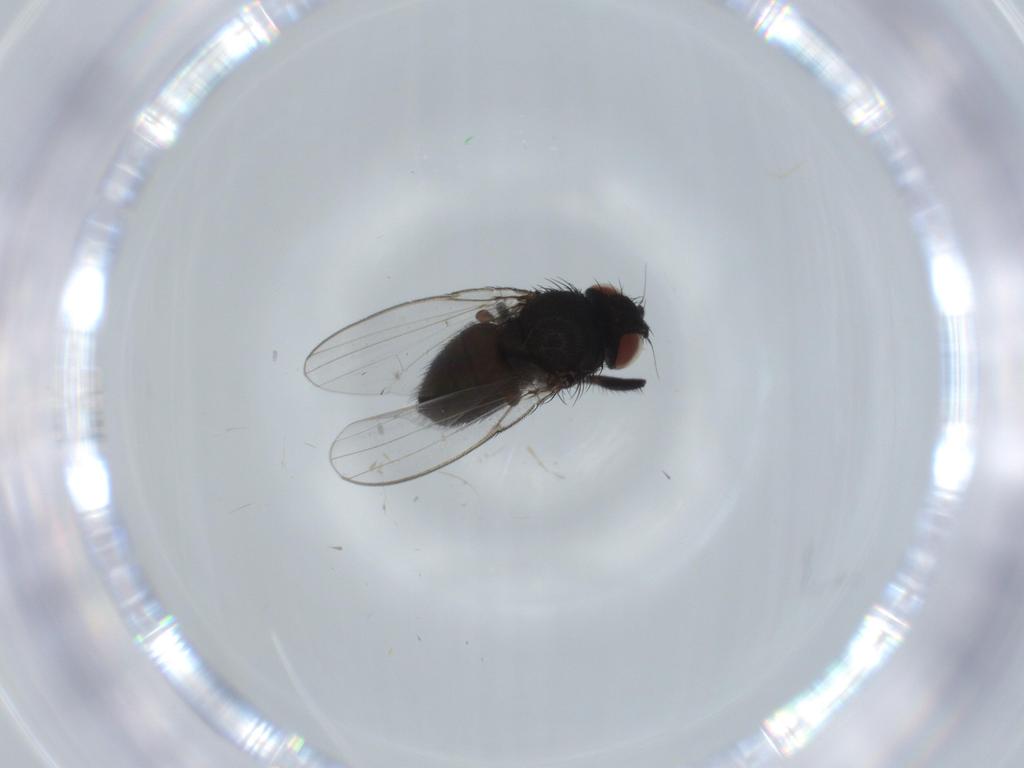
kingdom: Animalia
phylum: Arthropoda
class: Insecta
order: Diptera
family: Milichiidae
